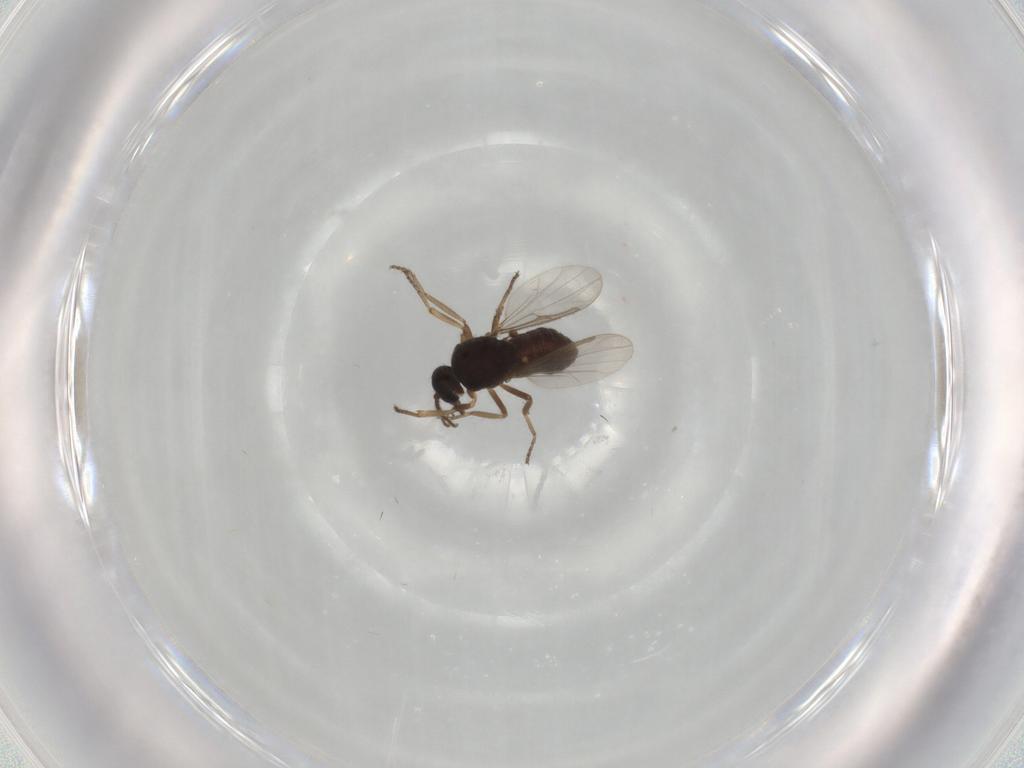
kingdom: Animalia
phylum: Arthropoda
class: Insecta
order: Diptera
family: Ceratopogonidae
